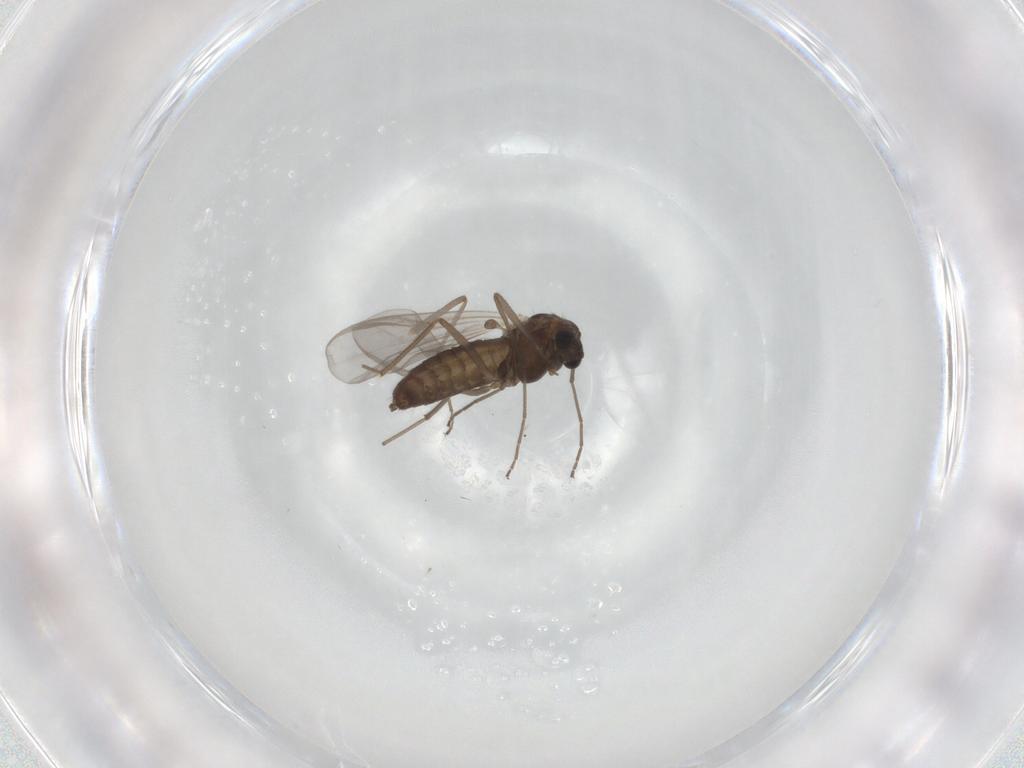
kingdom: Animalia
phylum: Arthropoda
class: Insecta
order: Diptera
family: Chironomidae
